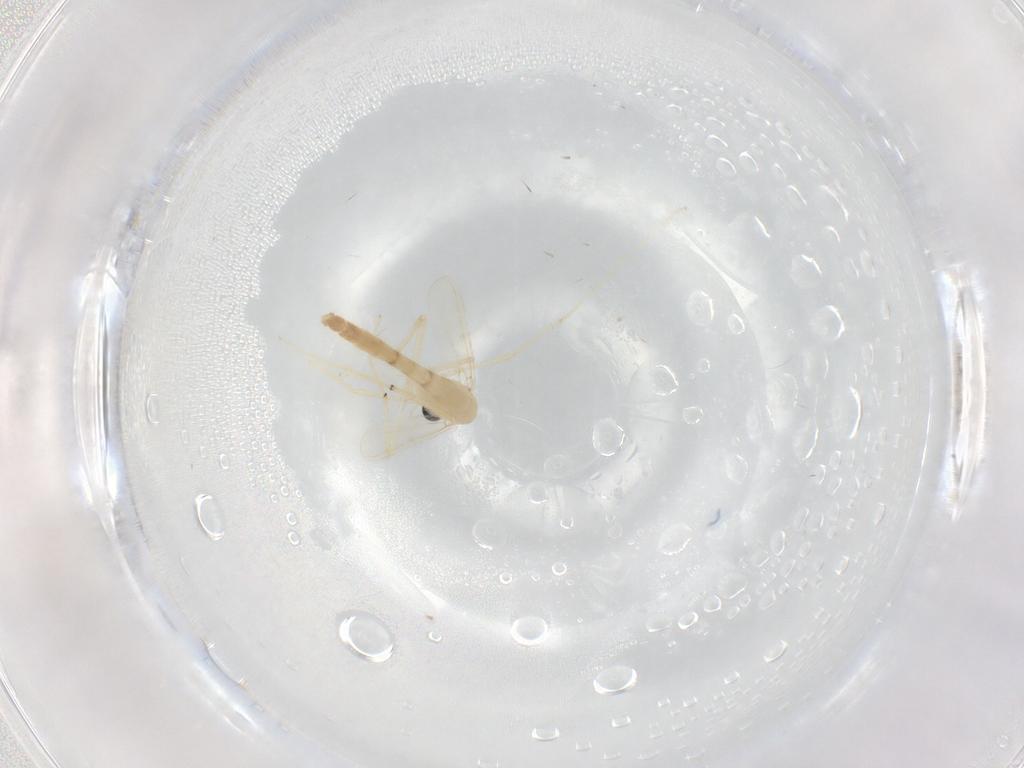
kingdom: Animalia
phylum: Arthropoda
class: Insecta
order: Diptera
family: Chironomidae
